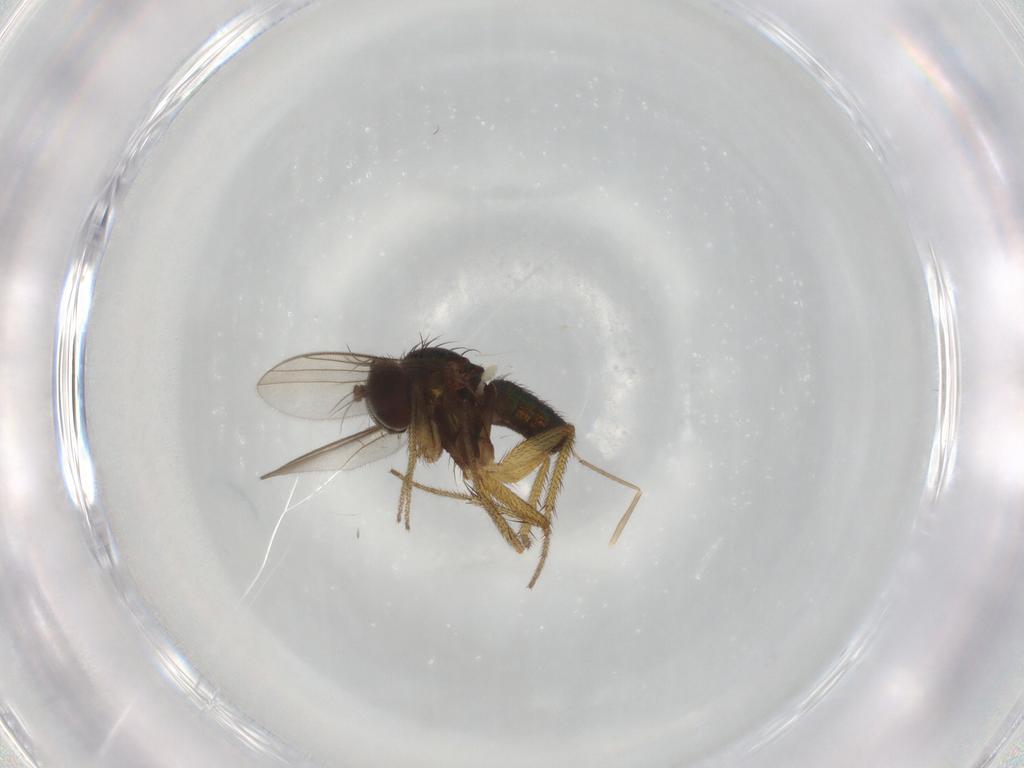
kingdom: Animalia
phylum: Arthropoda
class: Insecta
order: Diptera
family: Dolichopodidae
